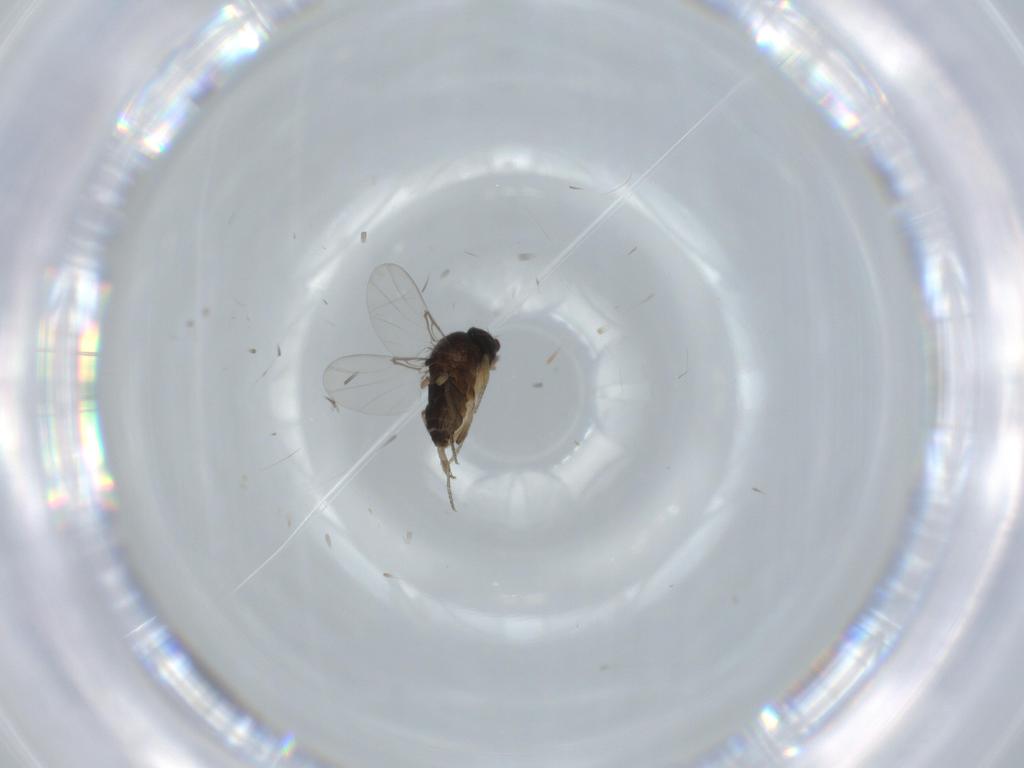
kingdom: Animalia
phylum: Arthropoda
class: Insecta
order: Diptera
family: Phoridae
